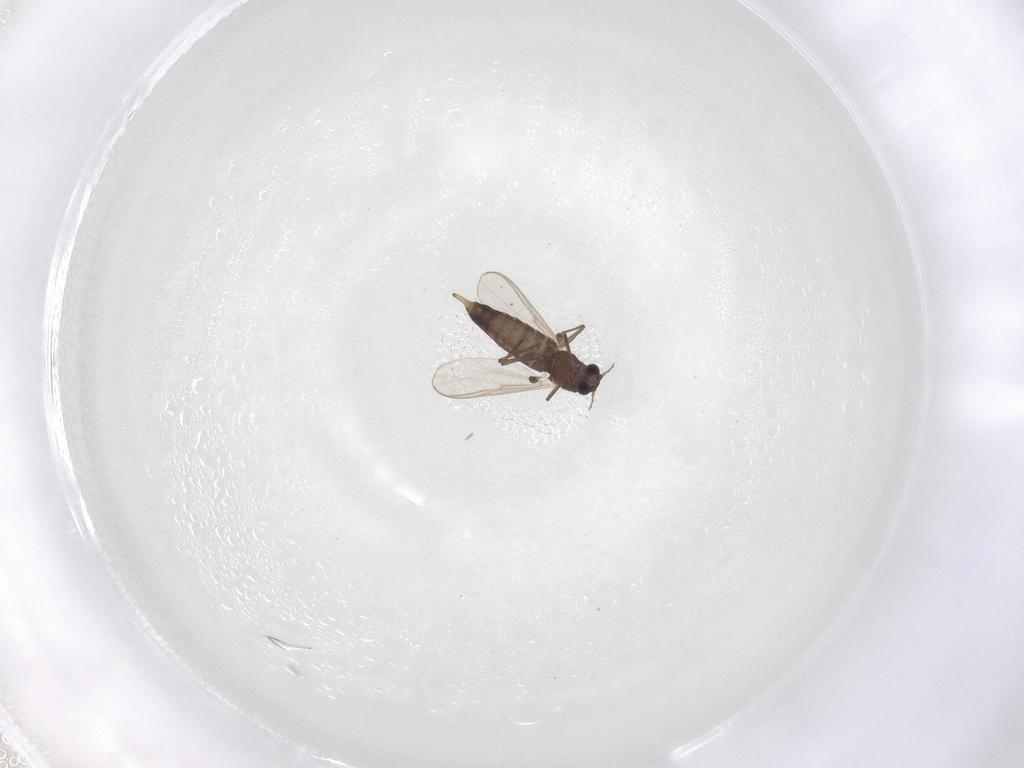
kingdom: Animalia
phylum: Arthropoda
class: Insecta
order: Diptera
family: Chironomidae
